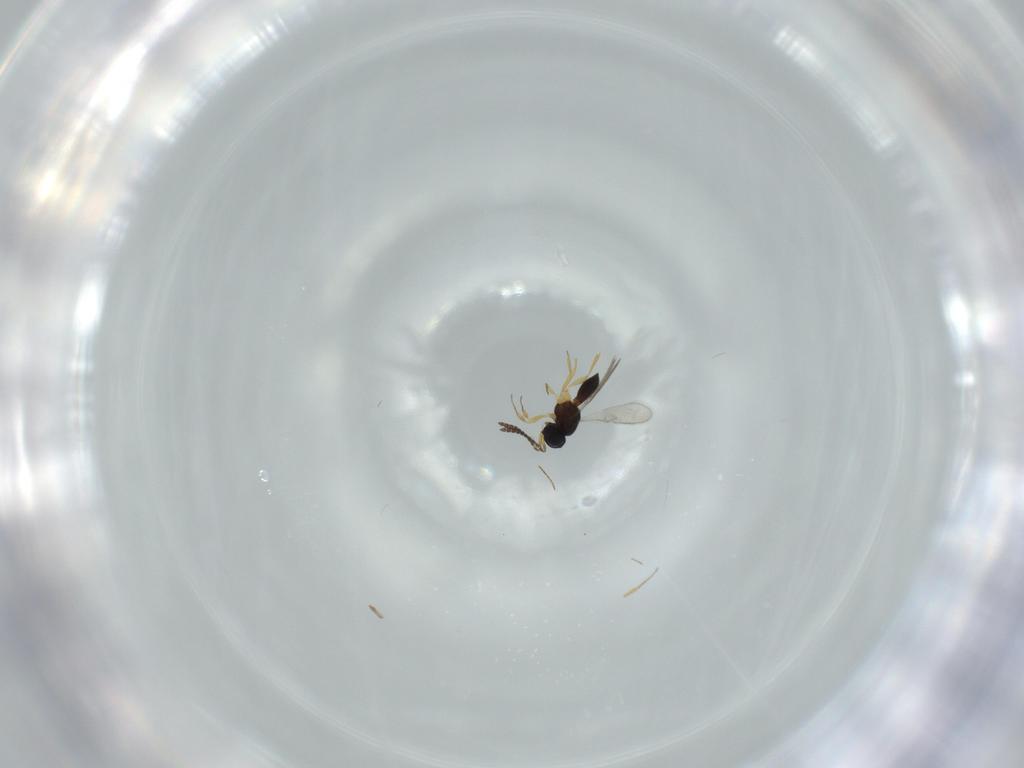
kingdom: Animalia
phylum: Arthropoda
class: Insecta
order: Hymenoptera
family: Scelionidae
